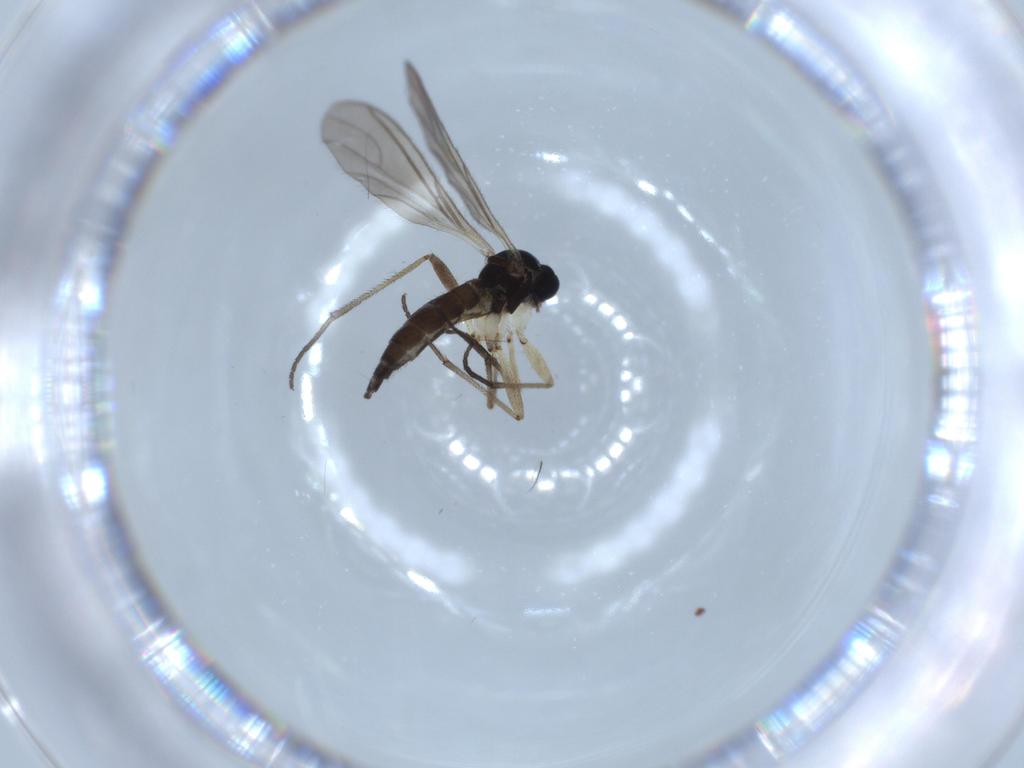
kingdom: Animalia
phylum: Arthropoda
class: Insecta
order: Diptera
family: Sciaridae
